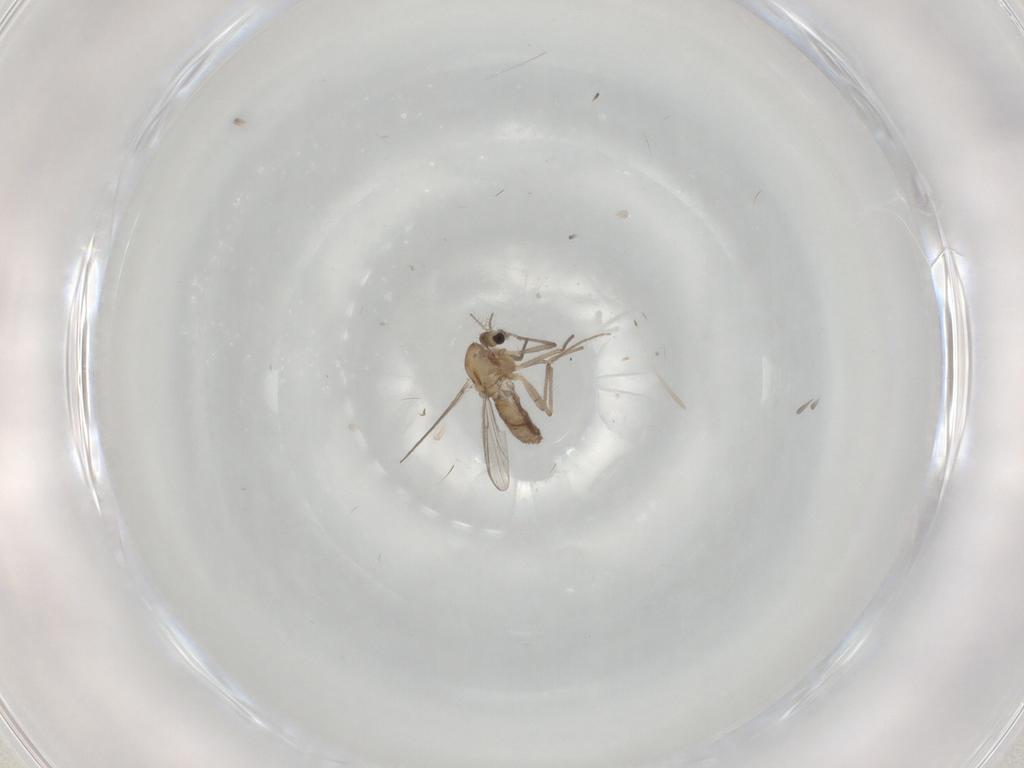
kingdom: Animalia
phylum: Arthropoda
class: Insecta
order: Diptera
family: Chironomidae
